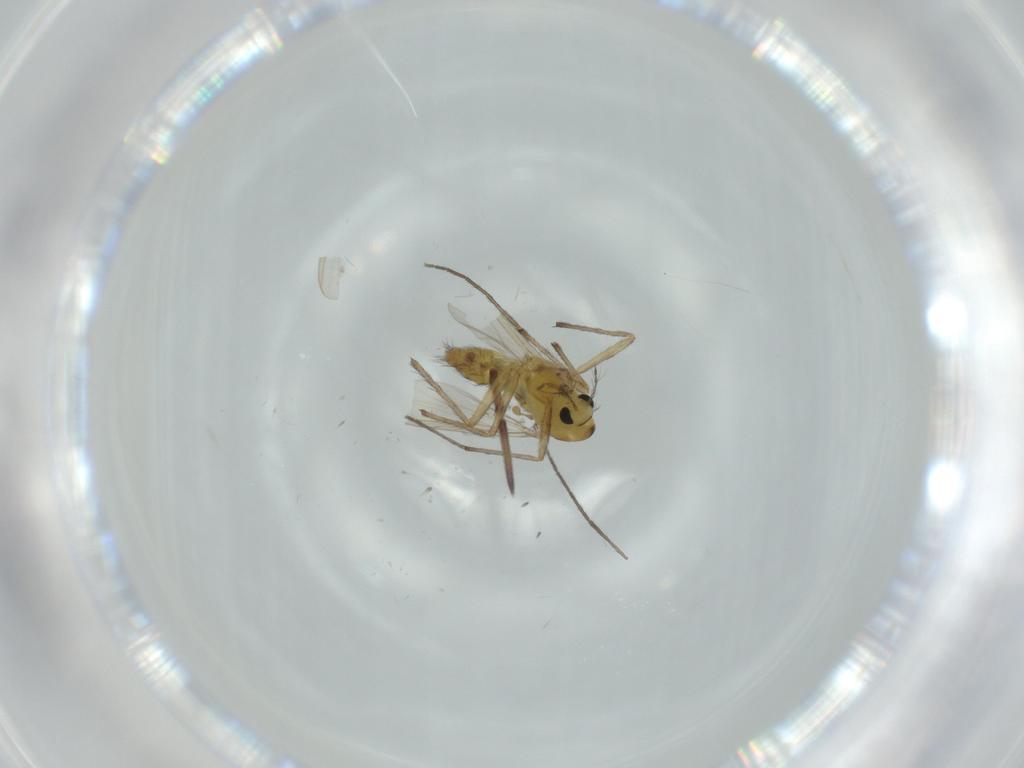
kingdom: Animalia
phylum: Arthropoda
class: Insecta
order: Diptera
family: Chironomidae
